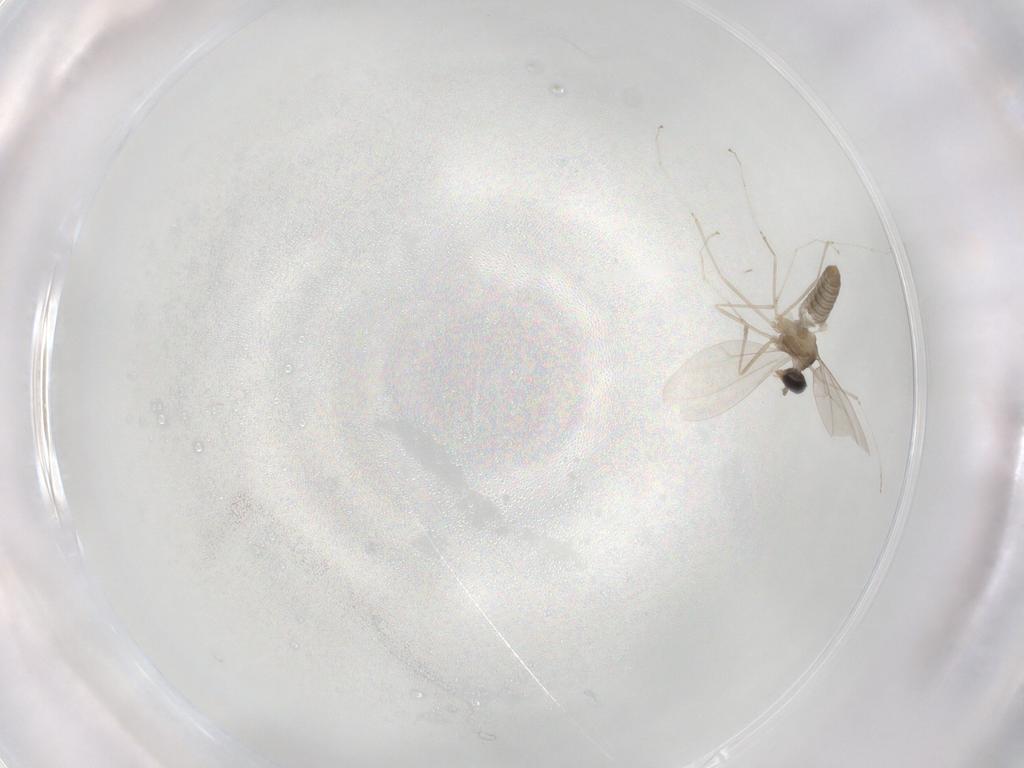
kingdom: Animalia
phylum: Arthropoda
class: Insecta
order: Diptera
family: Cecidomyiidae
